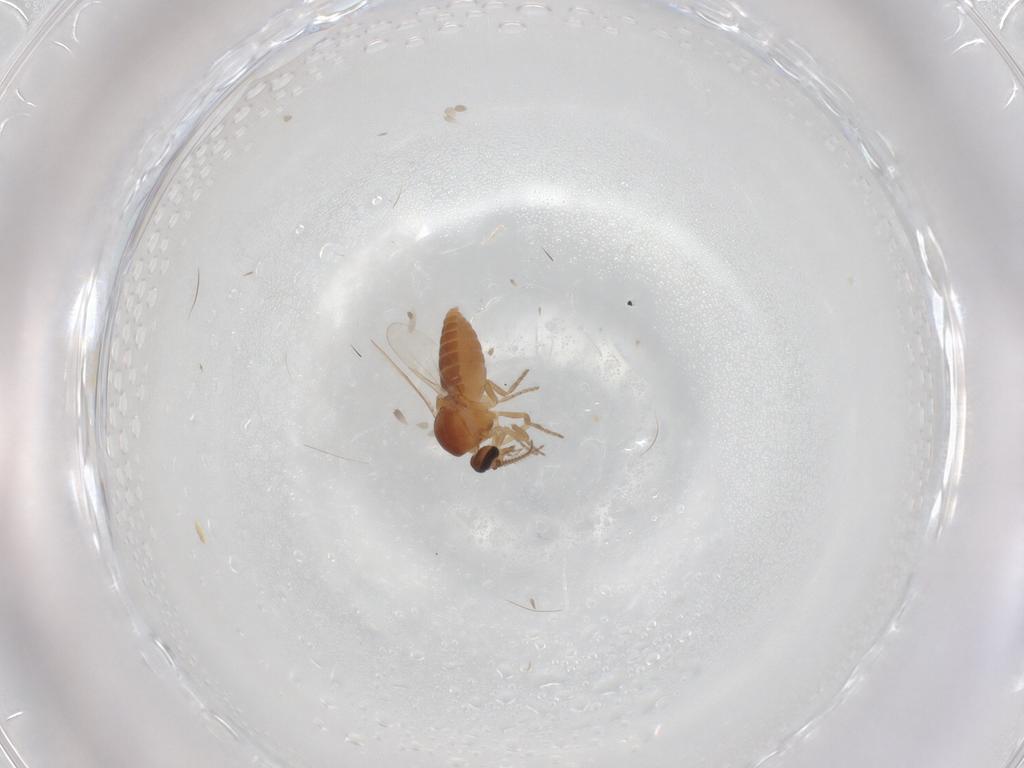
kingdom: Animalia
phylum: Arthropoda
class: Insecta
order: Diptera
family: Ceratopogonidae
